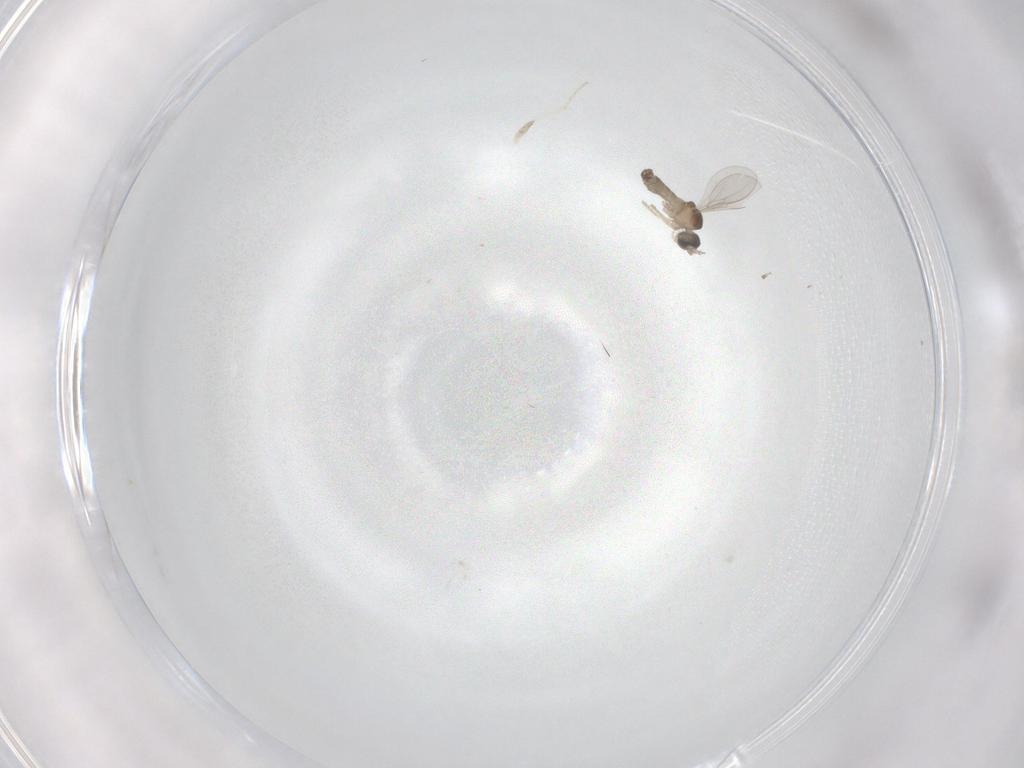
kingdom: Animalia
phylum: Arthropoda
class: Insecta
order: Diptera
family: Cecidomyiidae
